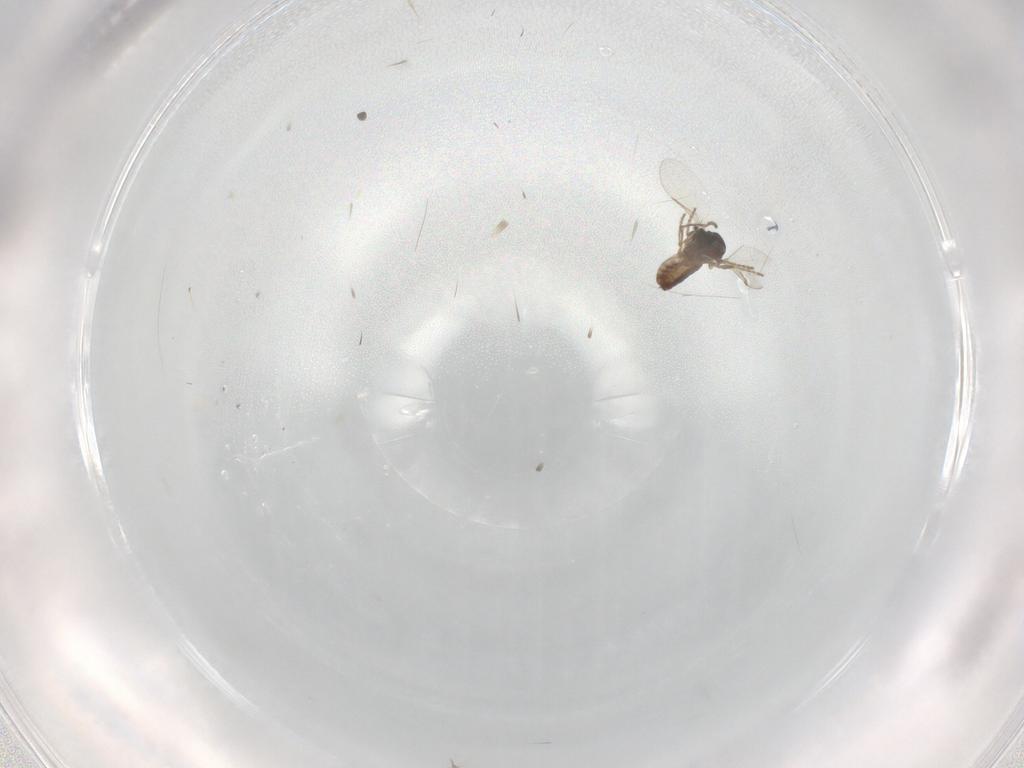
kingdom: Animalia
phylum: Arthropoda
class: Insecta
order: Diptera
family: Ceratopogonidae
